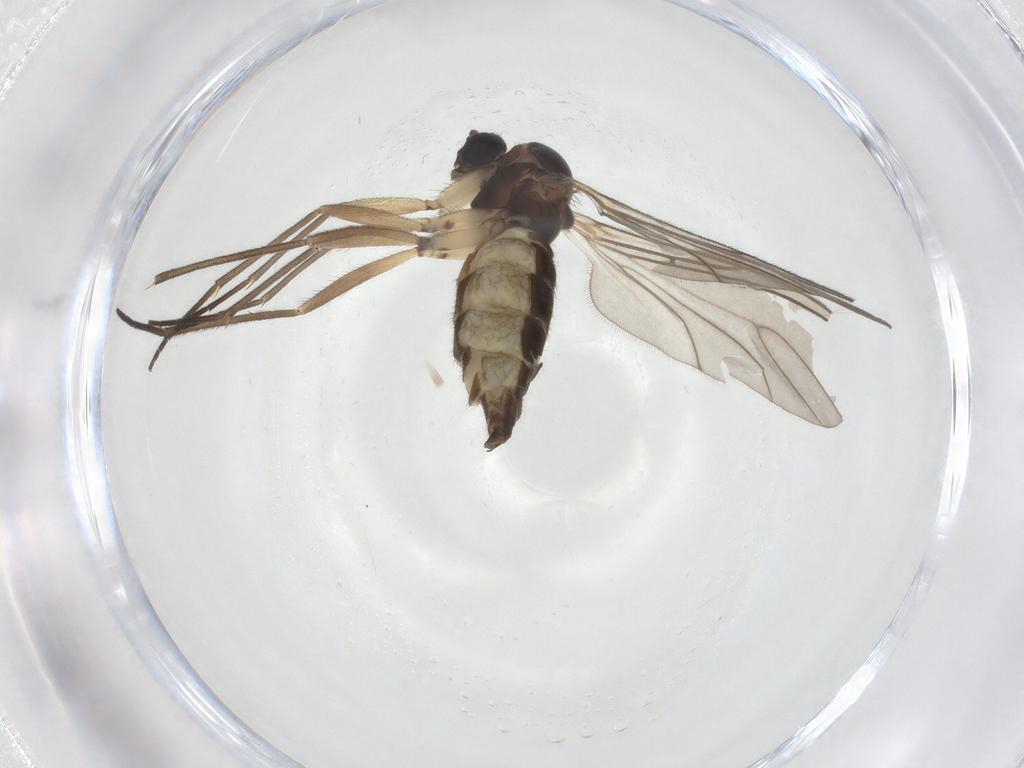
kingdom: Animalia
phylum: Arthropoda
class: Insecta
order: Diptera
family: Sciaridae
